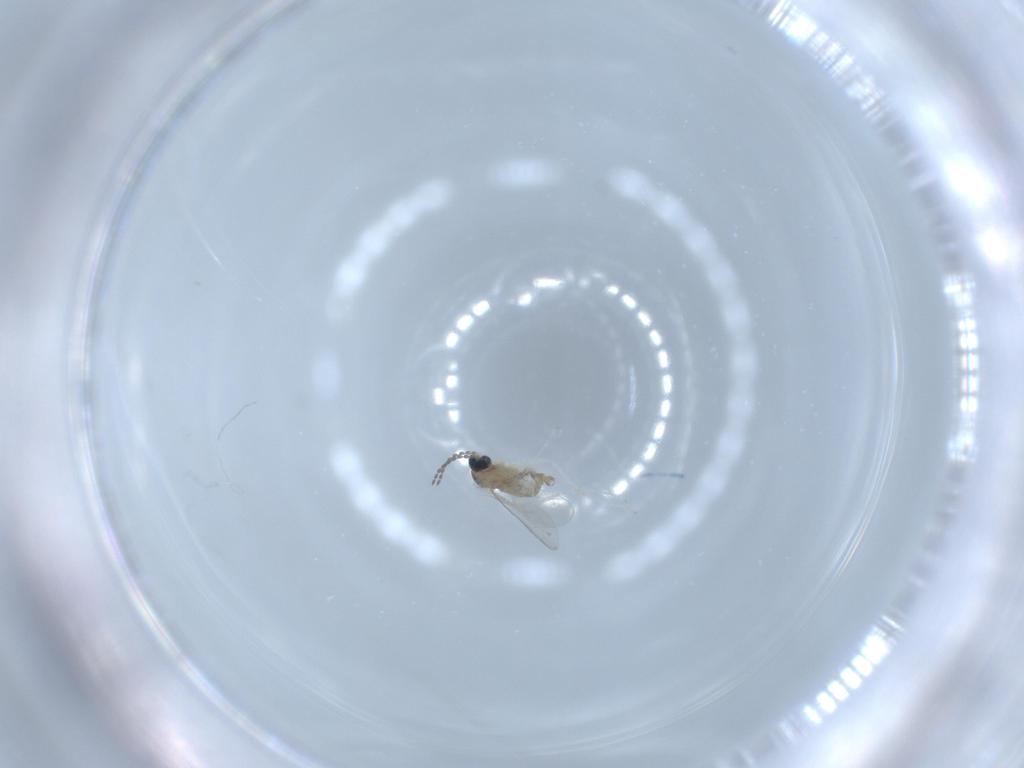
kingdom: Animalia
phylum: Arthropoda
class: Insecta
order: Diptera
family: Cecidomyiidae
